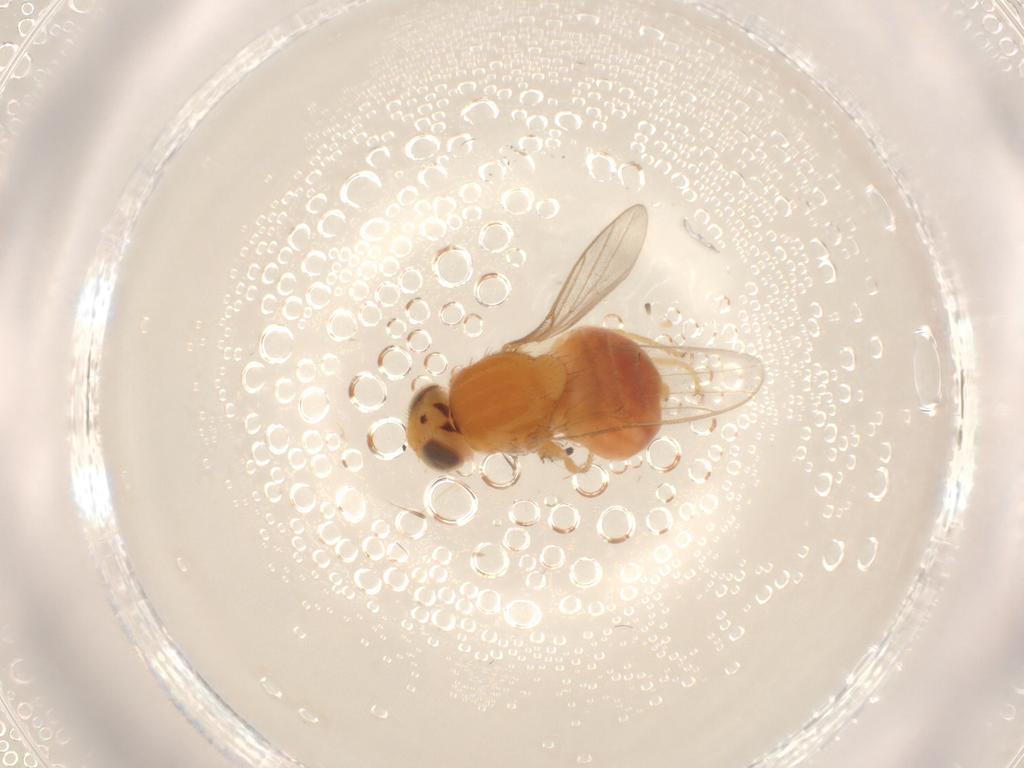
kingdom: Animalia
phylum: Arthropoda
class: Insecta
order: Diptera
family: Chloropidae
